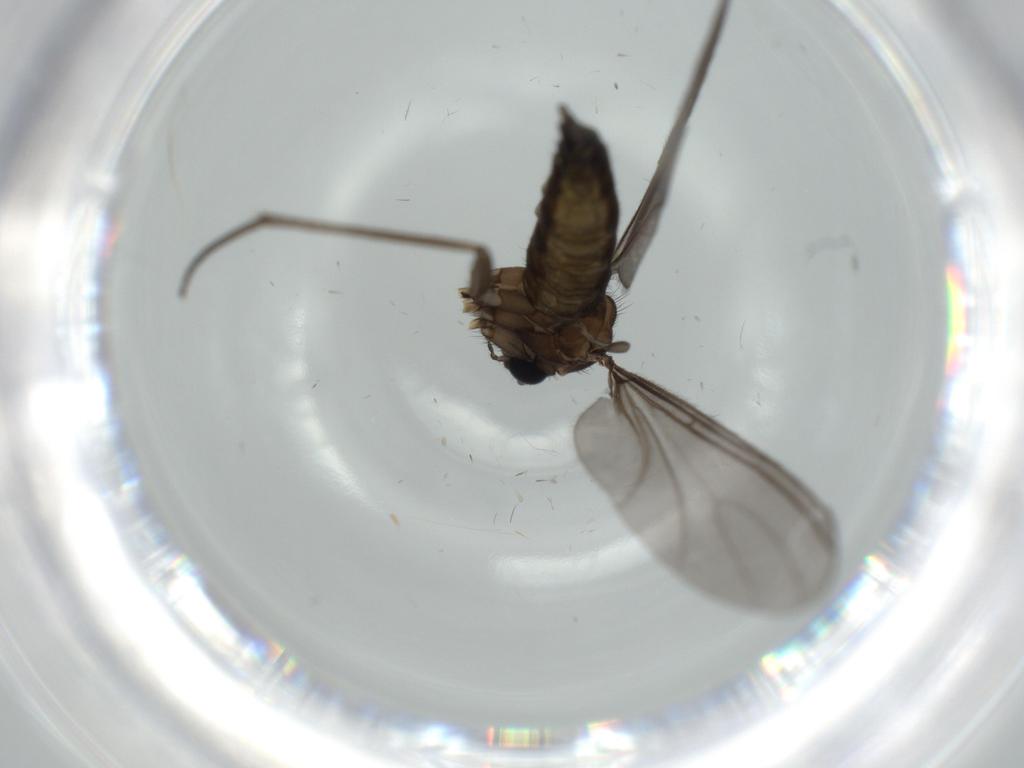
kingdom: Animalia
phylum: Arthropoda
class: Insecta
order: Diptera
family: Sciaridae
